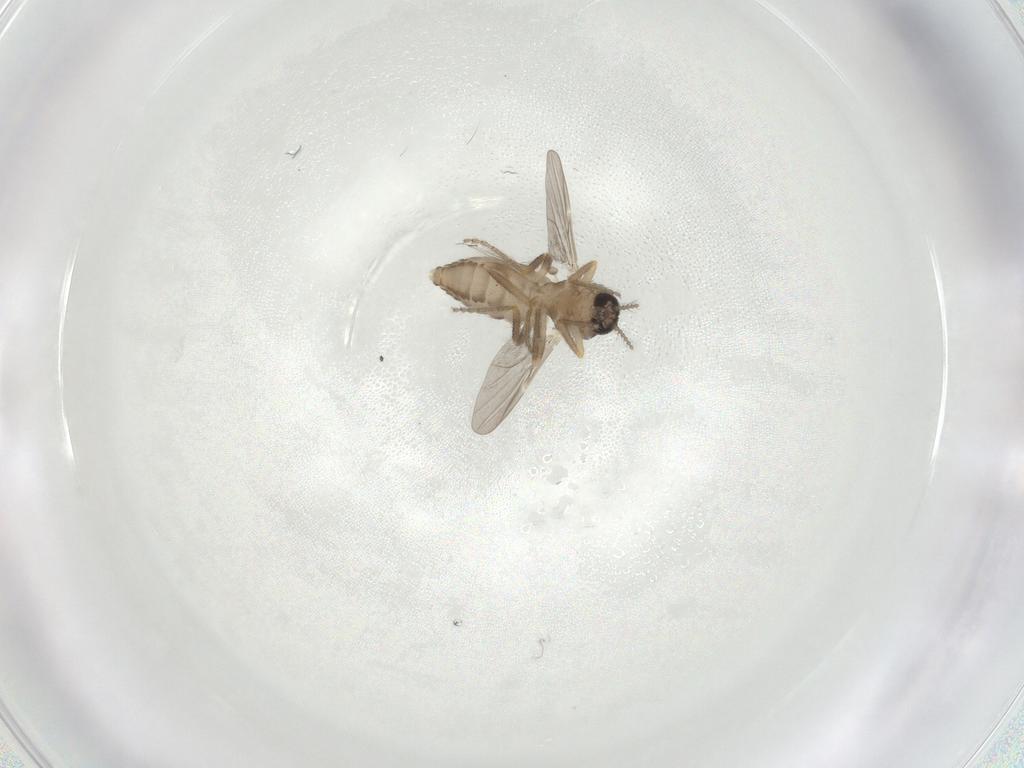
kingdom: Animalia
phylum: Arthropoda
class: Insecta
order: Diptera
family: Ceratopogonidae
